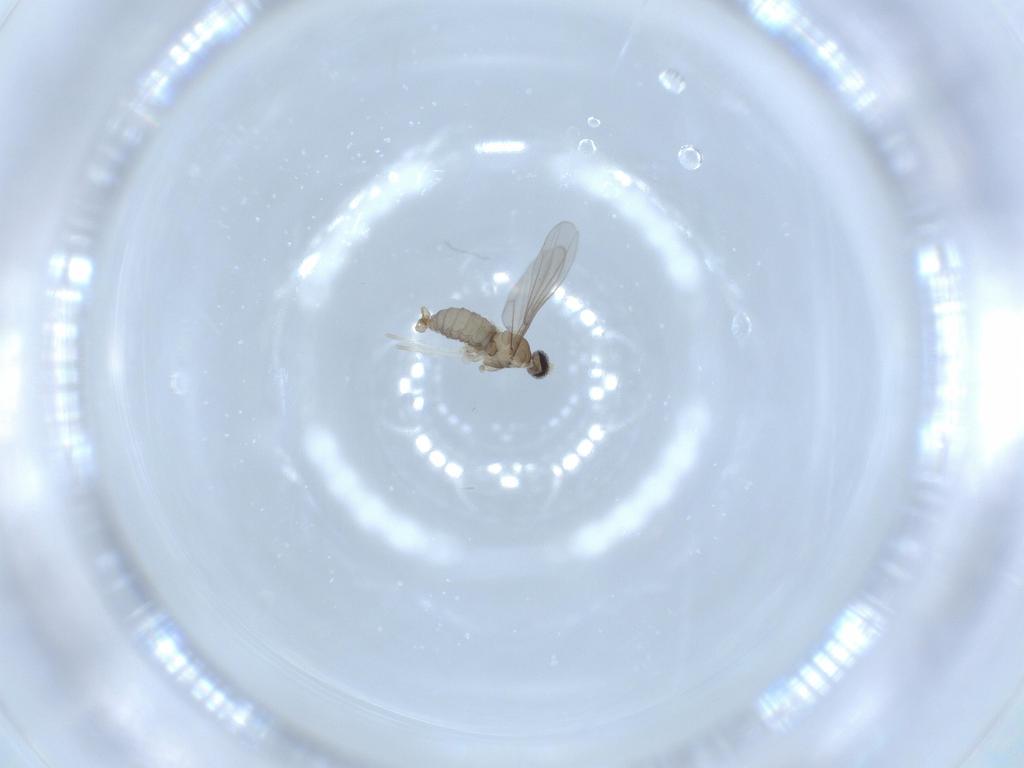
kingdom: Animalia
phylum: Arthropoda
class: Insecta
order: Diptera
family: Cecidomyiidae
